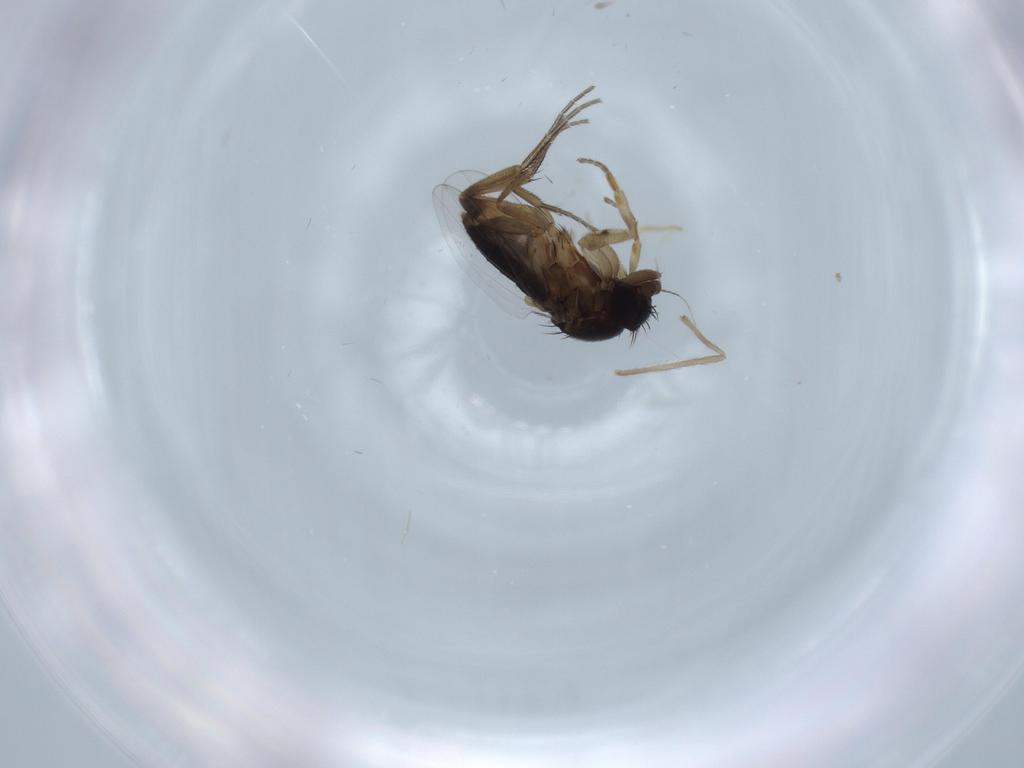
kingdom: Animalia
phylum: Arthropoda
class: Insecta
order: Diptera
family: Phoridae
